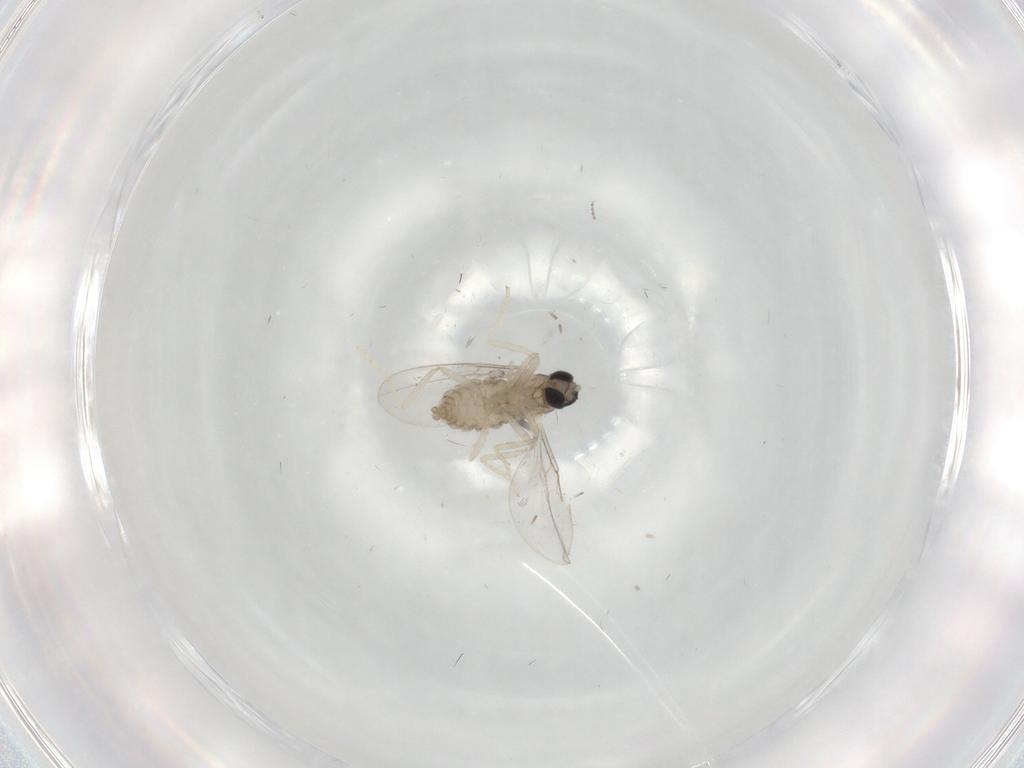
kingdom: Animalia
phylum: Arthropoda
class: Insecta
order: Diptera
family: Cecidomyiidae
